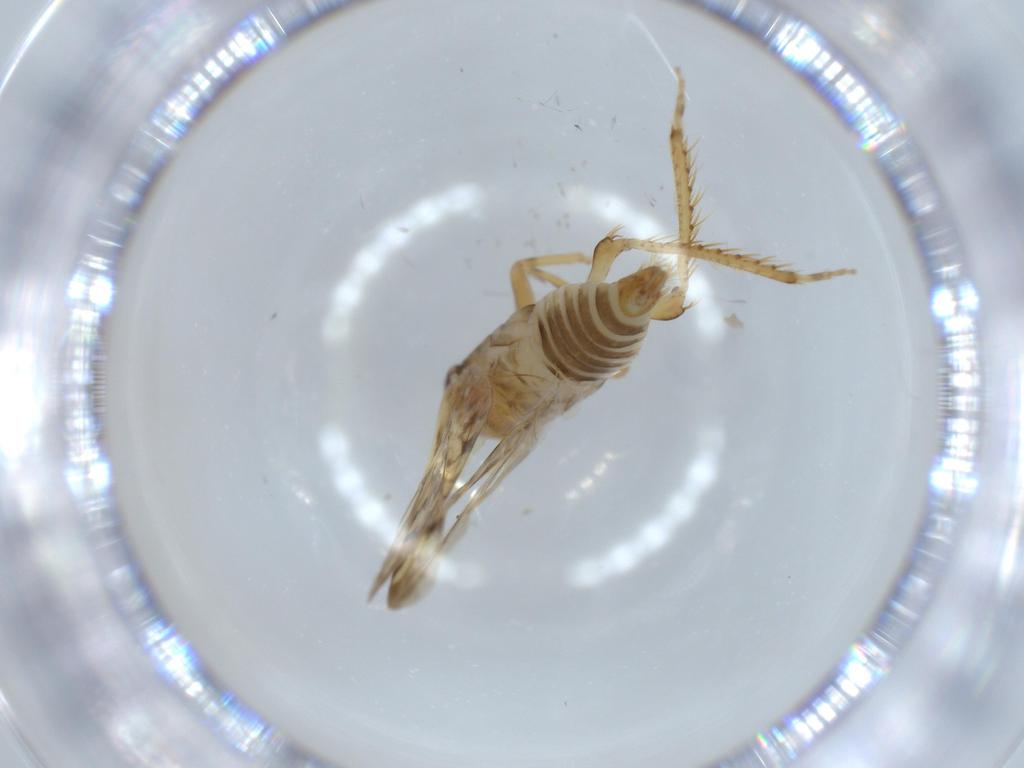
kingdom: Animalia
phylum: Arthropoda
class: Insecta
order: Hemiptera
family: Cicadellidae
